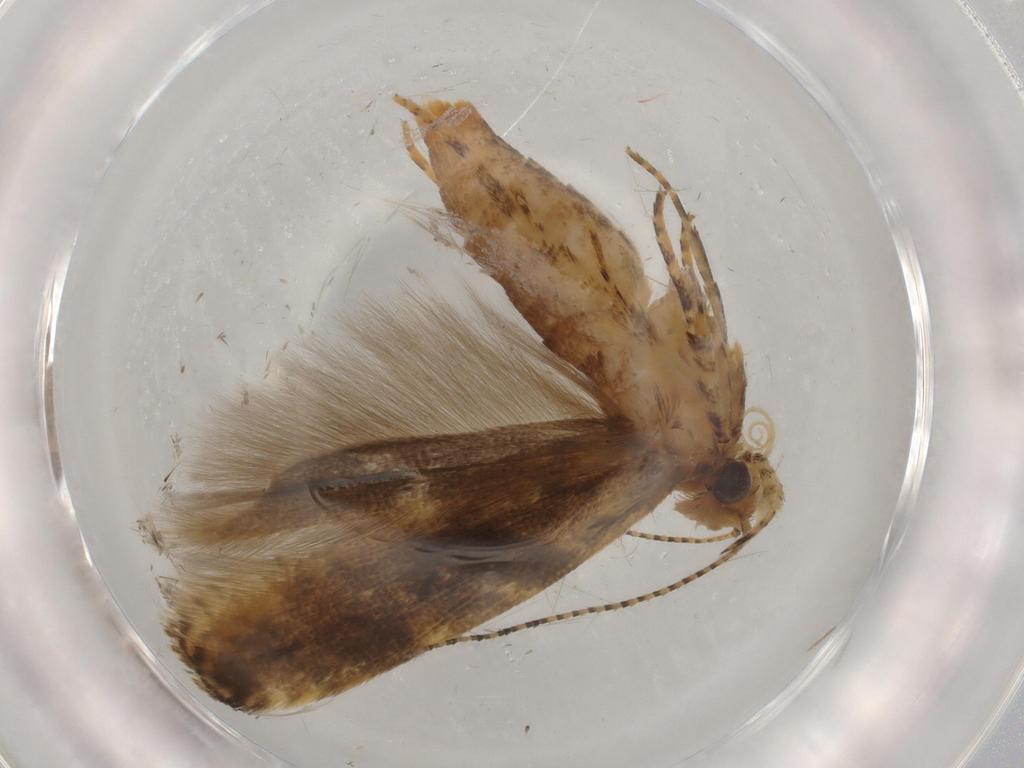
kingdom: Animalia
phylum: Arthropoda
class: Insecta
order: Lepidoptera
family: Gelechiidae
